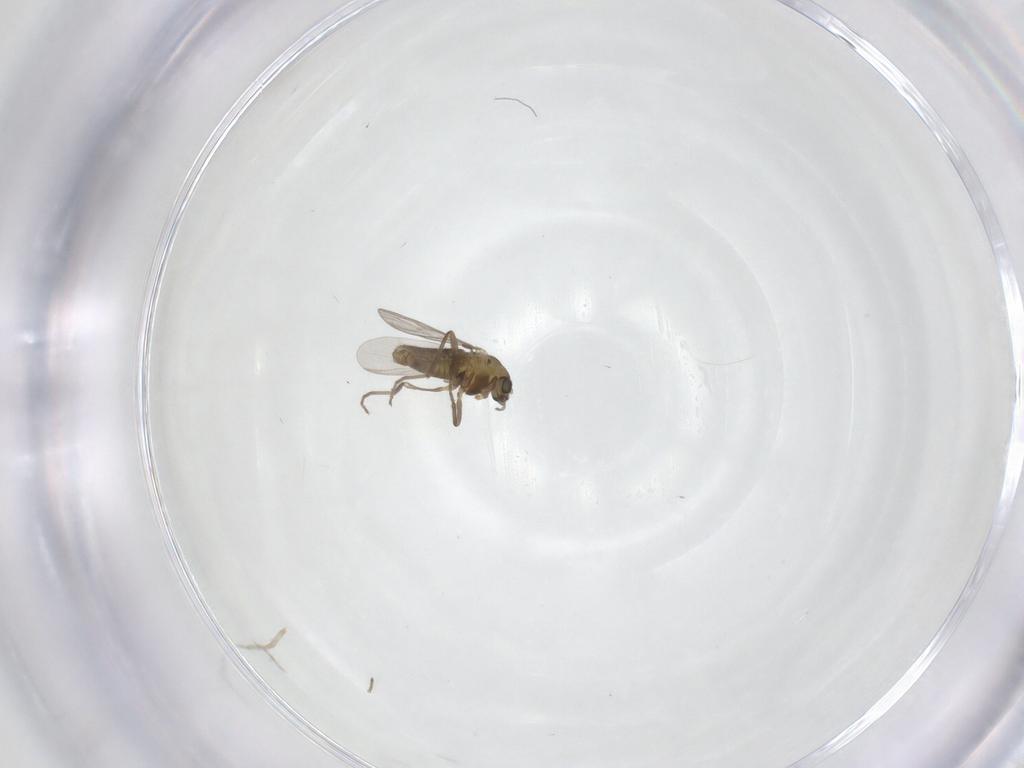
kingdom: Animalia
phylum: Arthropoda
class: Insecta
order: Diptera
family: Chironomidae
